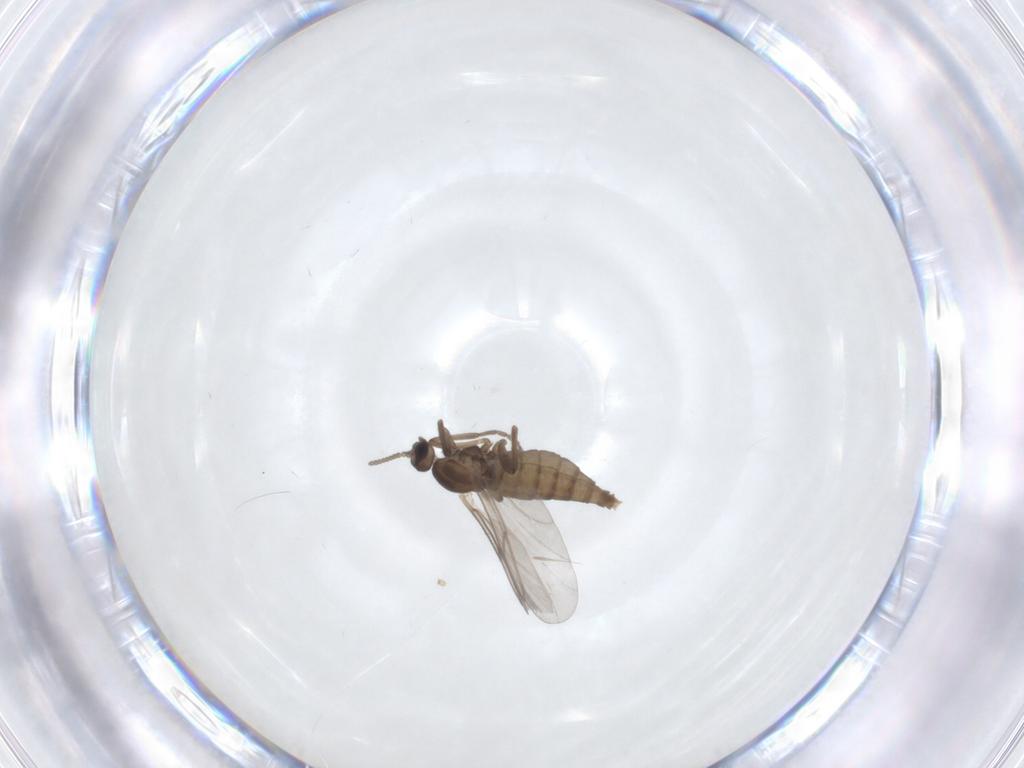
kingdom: Animalia
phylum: Arthropoda
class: Insecta
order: Diptera
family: Cecidomyiidae
